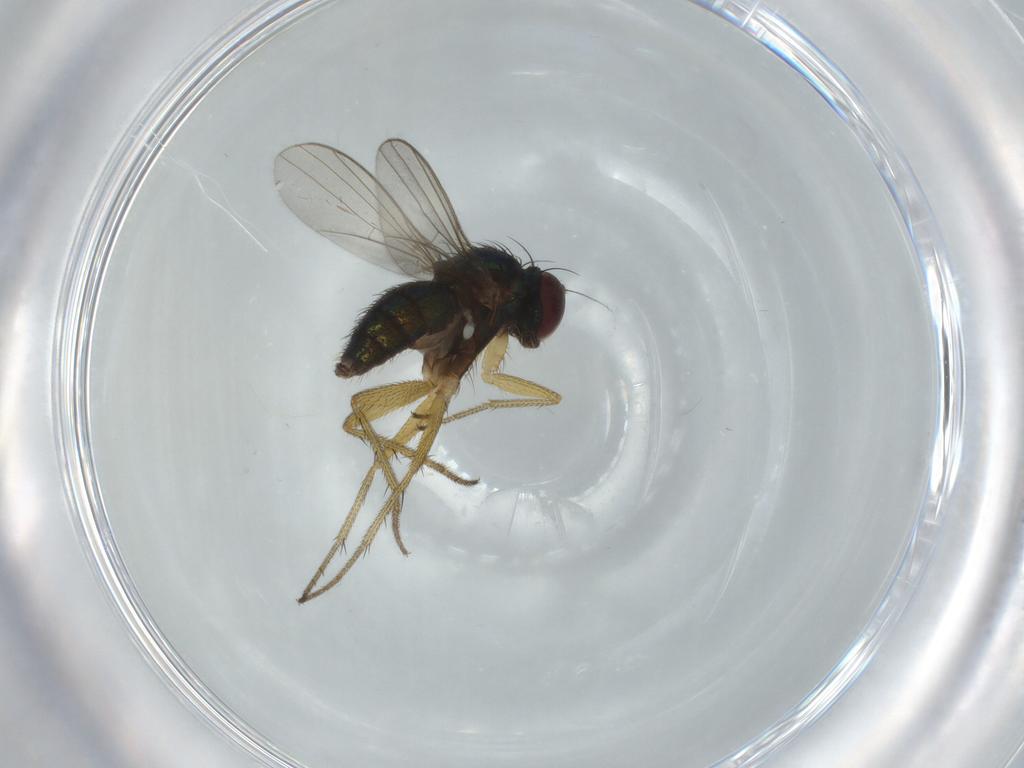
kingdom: Animalia
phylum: Arthropoda
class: Insecta
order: Diptera
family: Dolichopodidae
